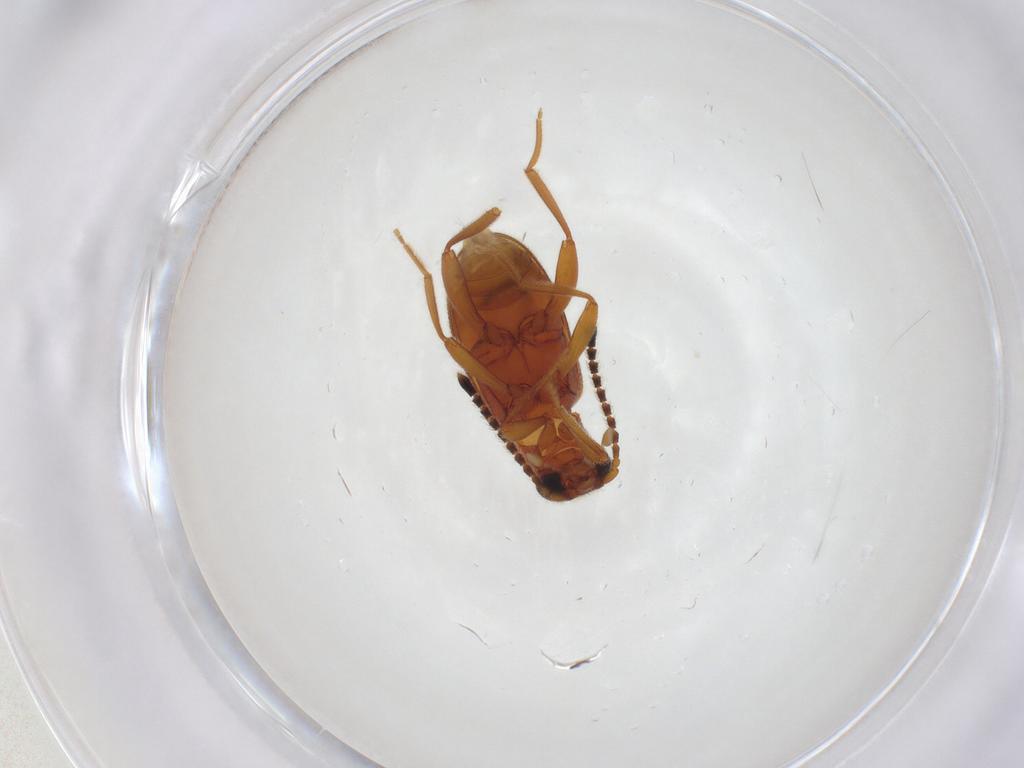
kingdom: Animalia
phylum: Arthropoda
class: Insecta
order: Coleoptera
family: Aderidae
